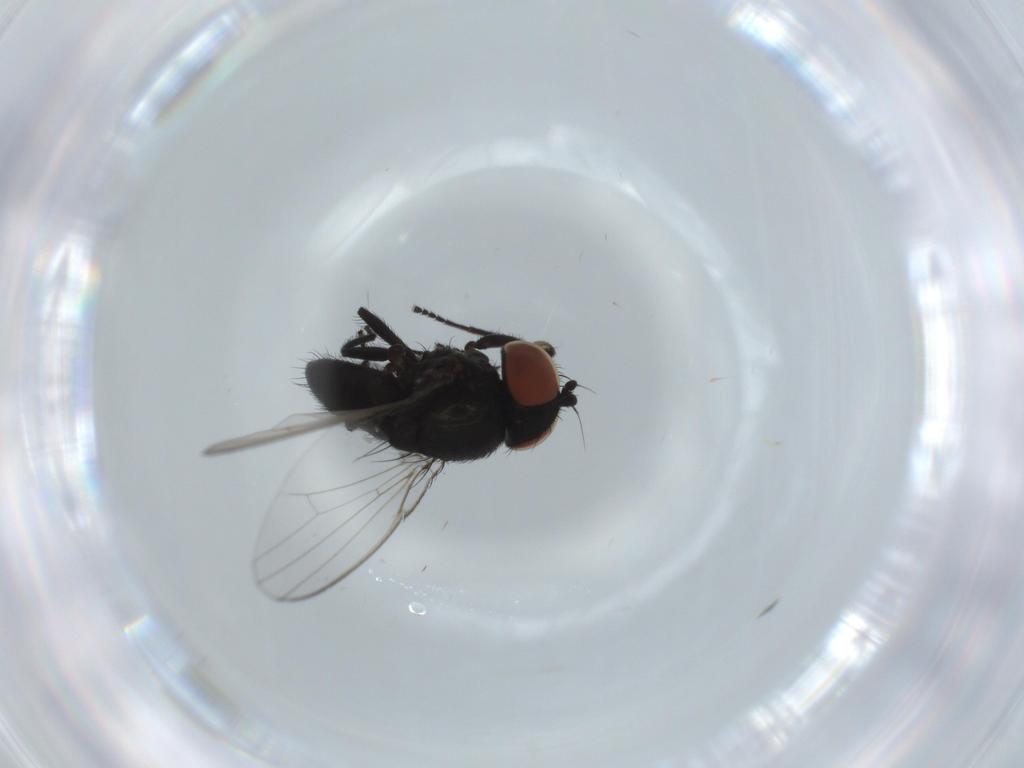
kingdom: Animalia
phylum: Arthropoda
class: Insecta
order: Diptera
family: Milichiidae
